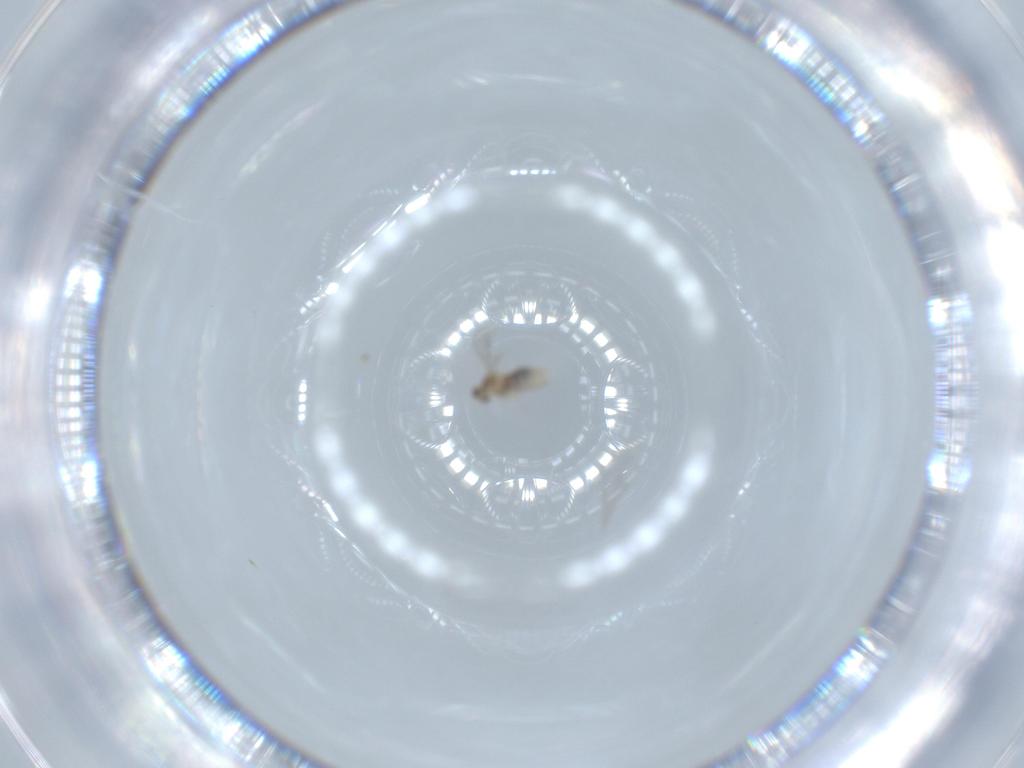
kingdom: Animalia
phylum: Arthropoda
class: Insecta
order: Diptera
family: Cecidomyiidae
